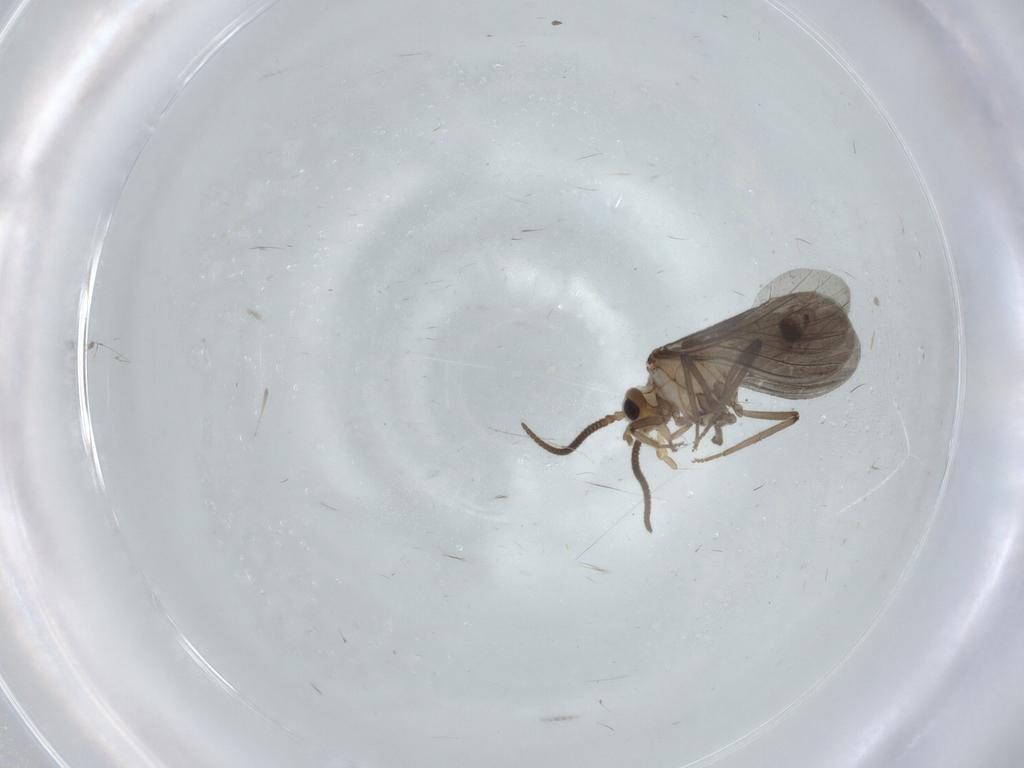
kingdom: Animalia
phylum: Arthropoda
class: Insecta
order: Neuroptera
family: Coniopterygidae
